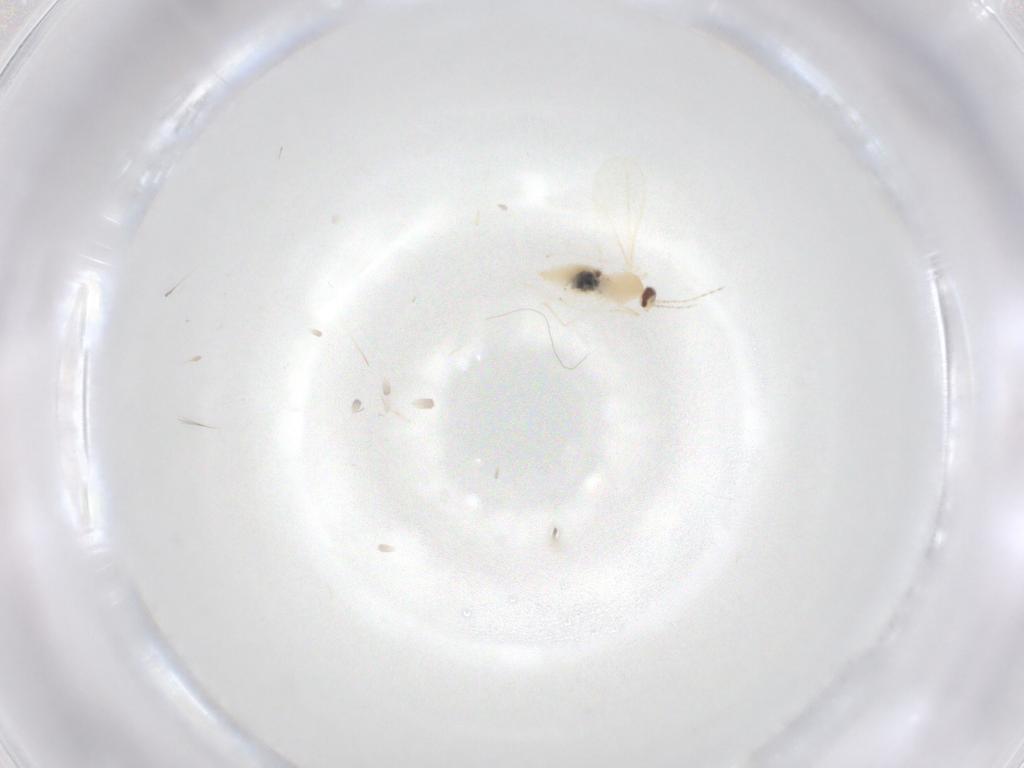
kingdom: Animalia
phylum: Arthropoda
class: Insecta
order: Diptera
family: Cecidomyiidae
